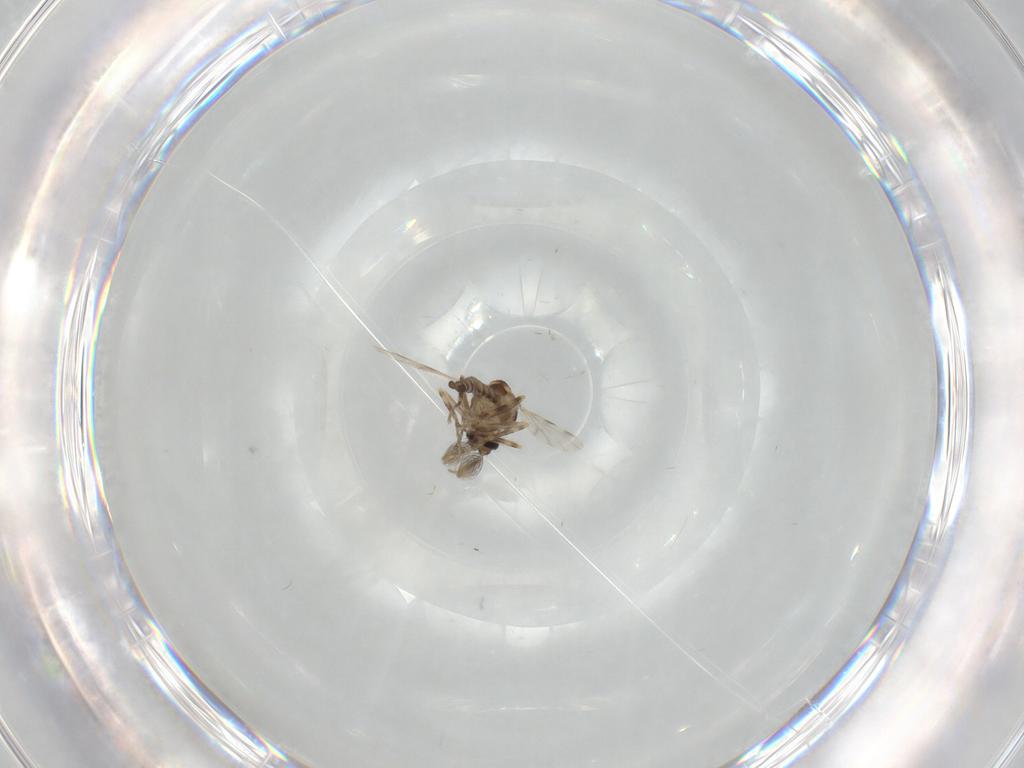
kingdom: Animalia
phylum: Arthropoda
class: Insecta
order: Diptera
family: Ceratopogonidae
